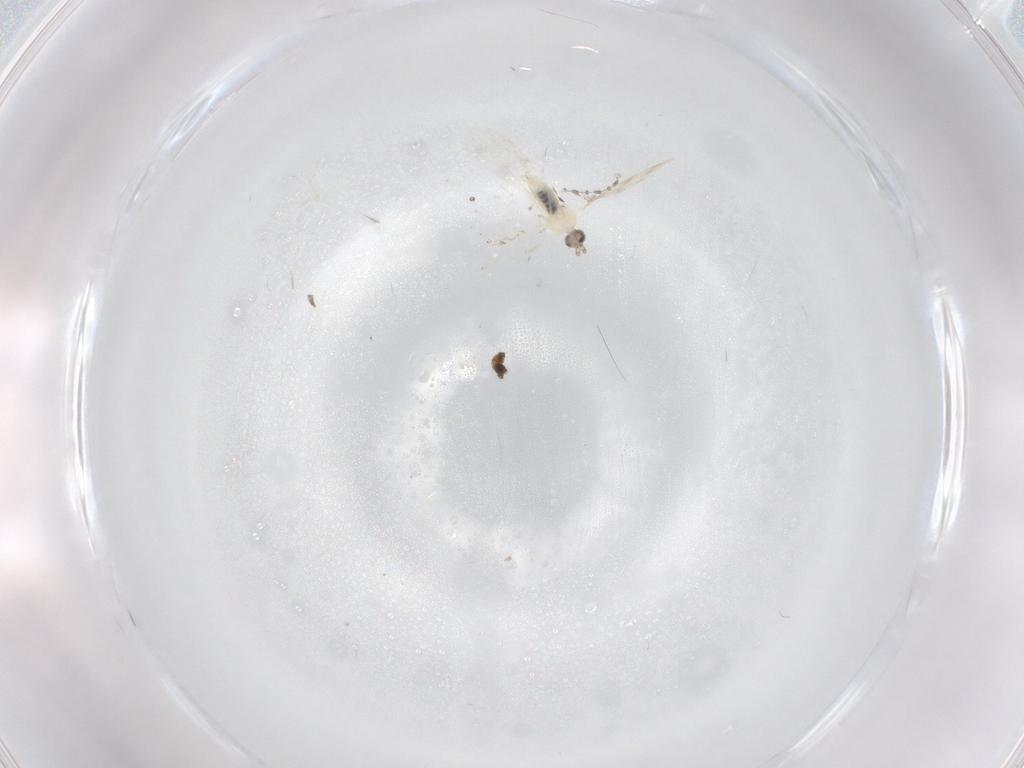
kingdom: Animalia
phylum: Arthropoda
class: Insecta
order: Diptera
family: Cecidomyiidae
